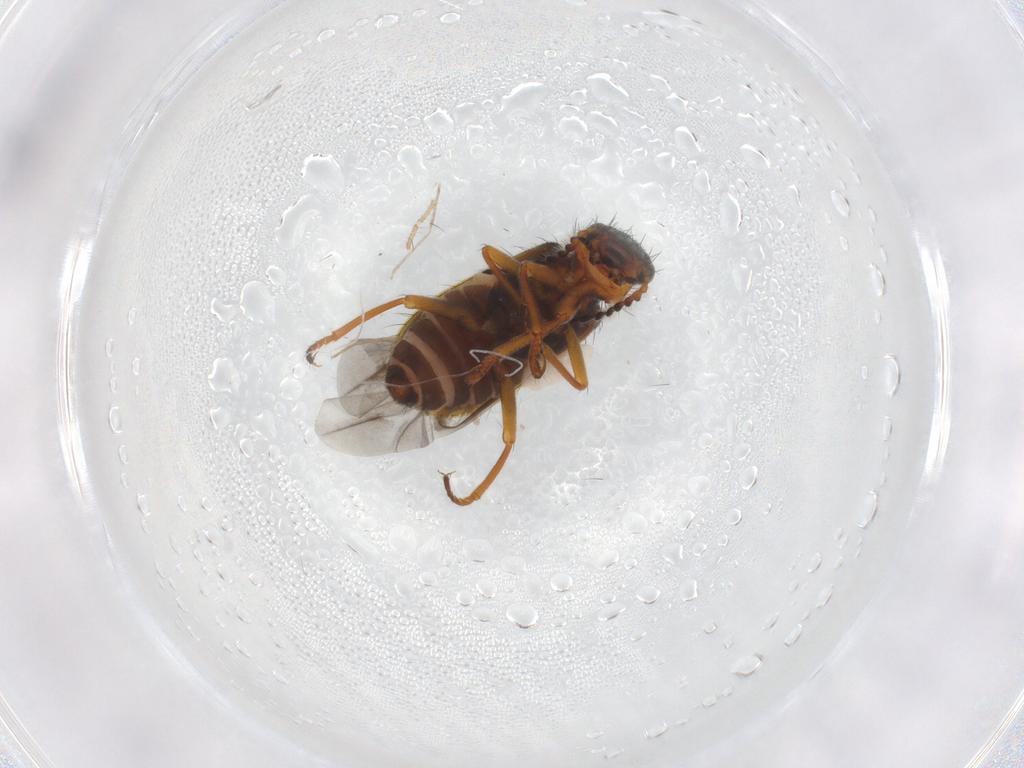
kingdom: Animalia
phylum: Arthropoda
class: Insecta
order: Coleoptera
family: Melyridae
